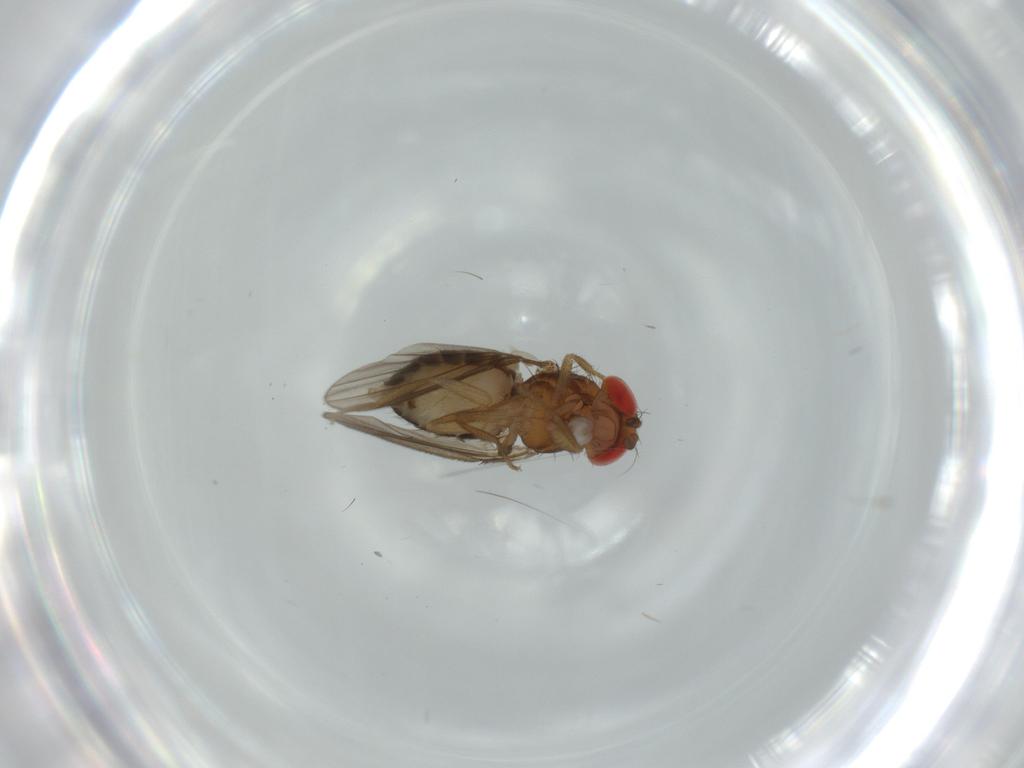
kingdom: Animalia
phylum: Arthropoda
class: Insecta
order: Diptera
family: Drosophilidae
